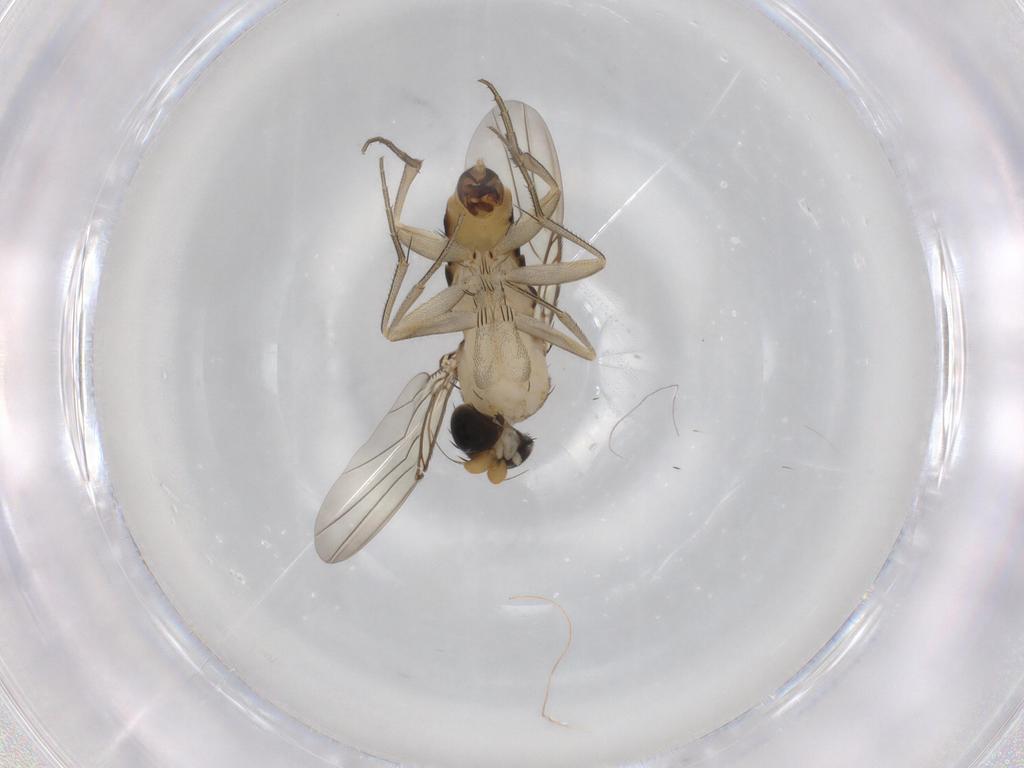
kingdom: Animalia
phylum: Arthropoda
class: Insecta
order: Diptera
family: Phoridae
